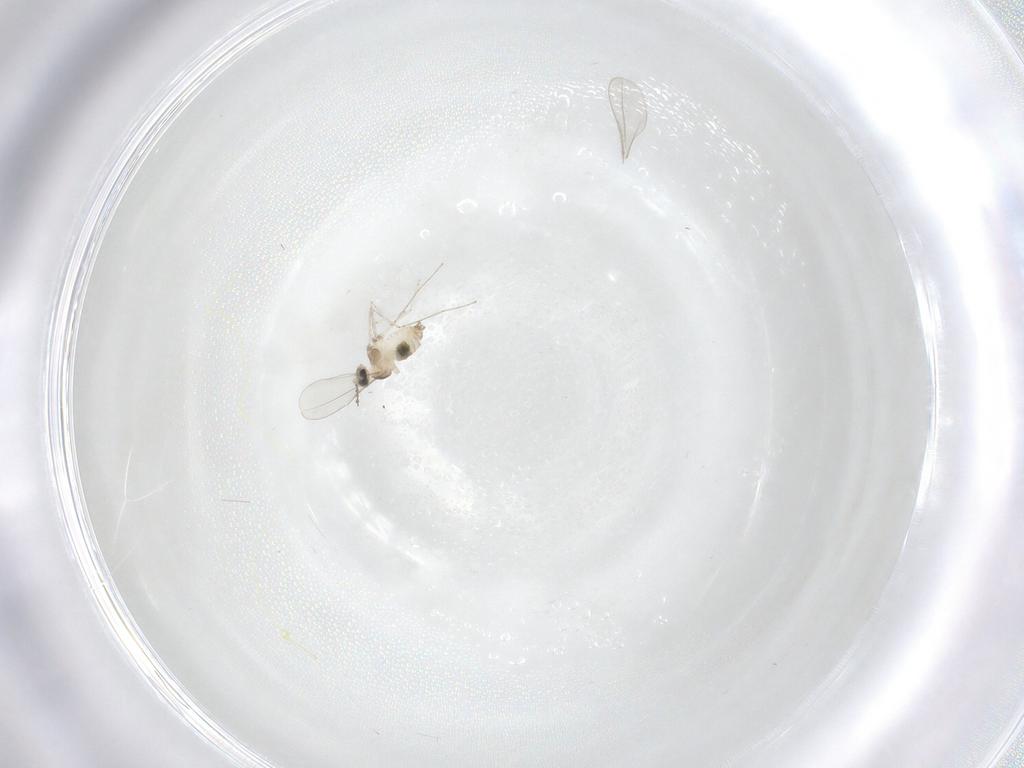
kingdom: Animalia
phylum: Arthropoda
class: Insecta
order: Diptera
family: Cecidomyiidae
